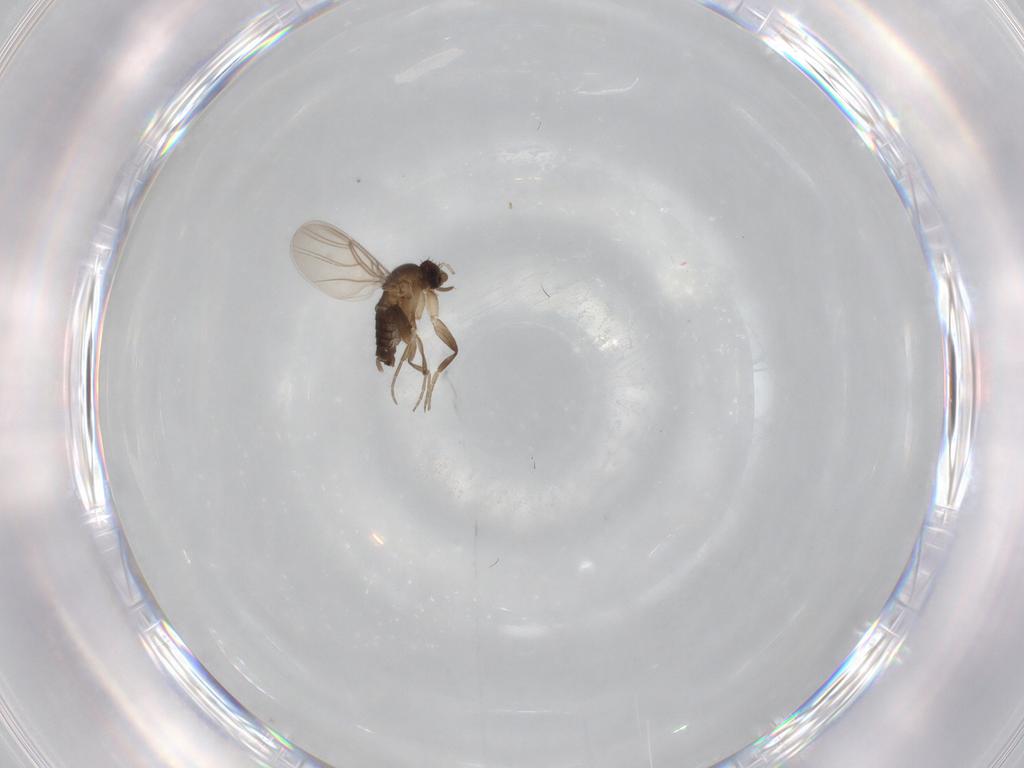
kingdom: Animalia
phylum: Arthropoda
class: Insecta
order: Diptera
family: Phoridae
